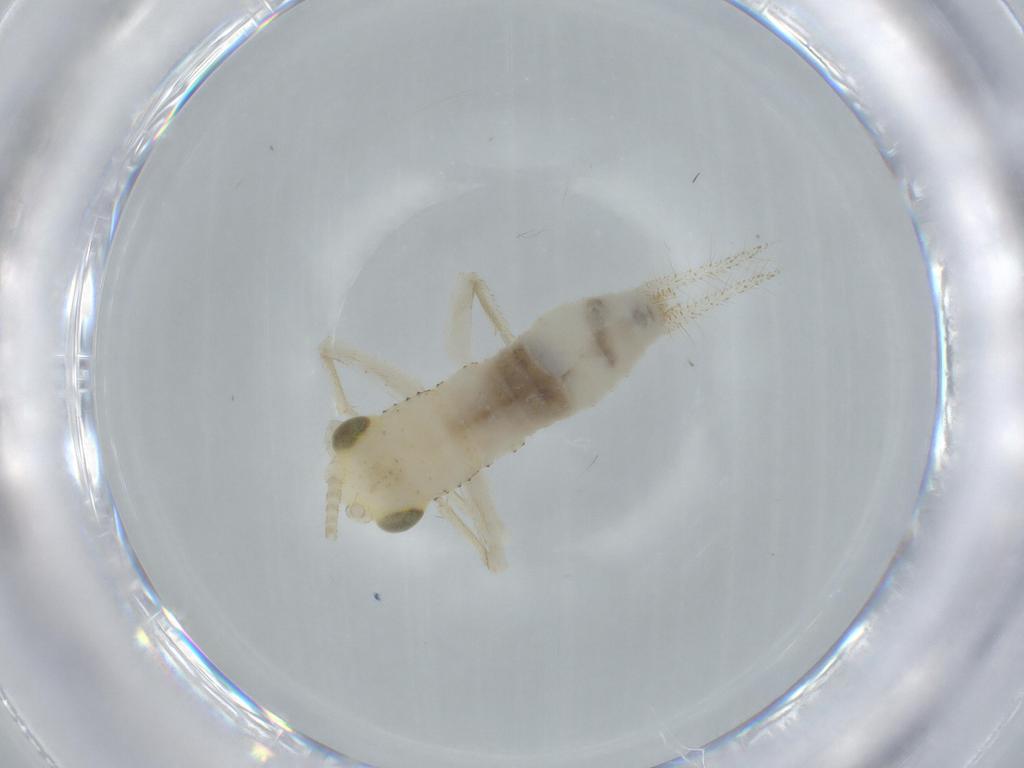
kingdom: Animalia
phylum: Arthropoda
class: Insecta
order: Orthoptera
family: Trigonidiidae
